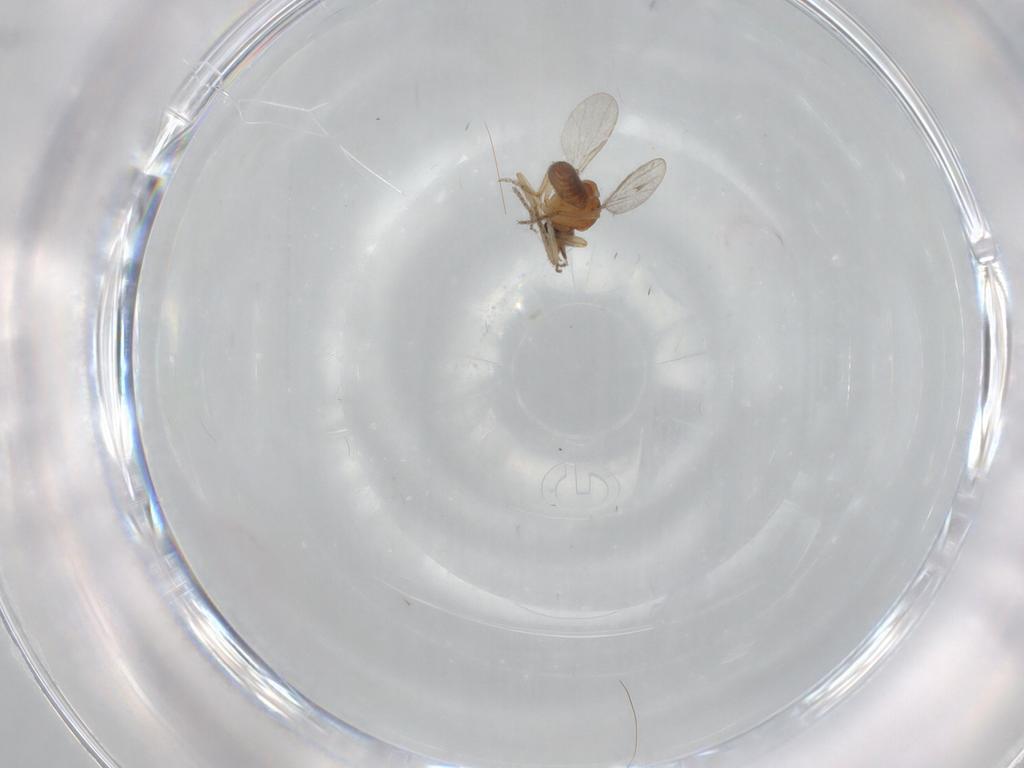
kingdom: Animalia
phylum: Arthropoda
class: Insecta
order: Diptera
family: Ceratopogonidae
